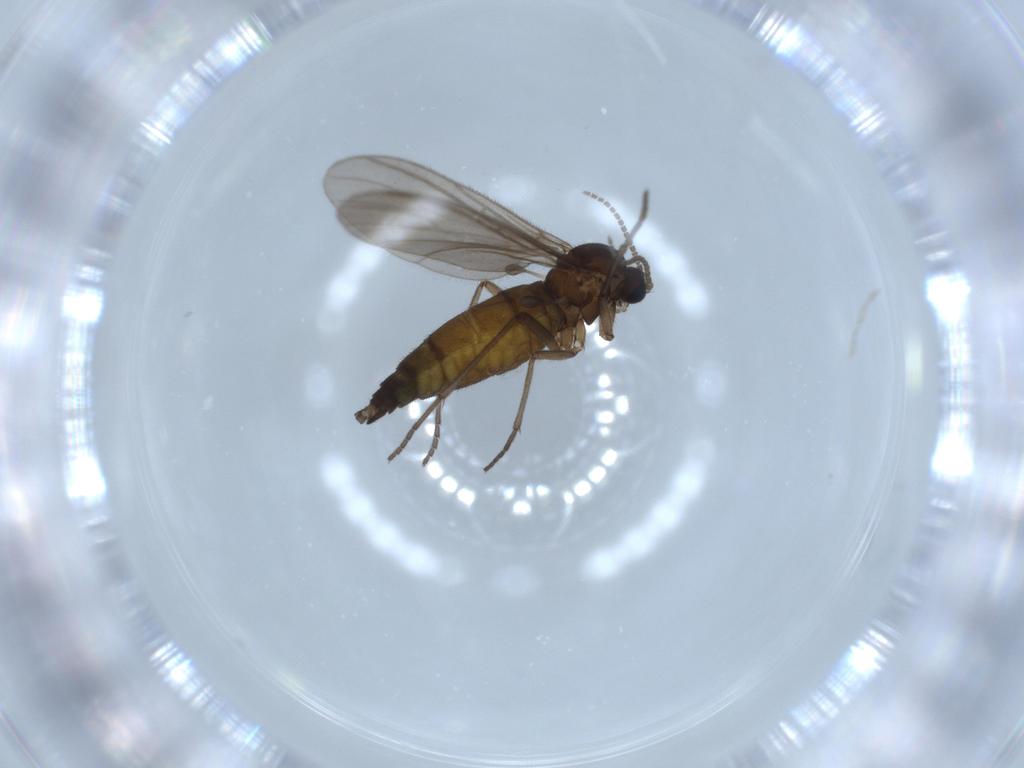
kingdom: Animalia
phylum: Arthropoda
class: Insecta
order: Diptera
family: Sciaridae
